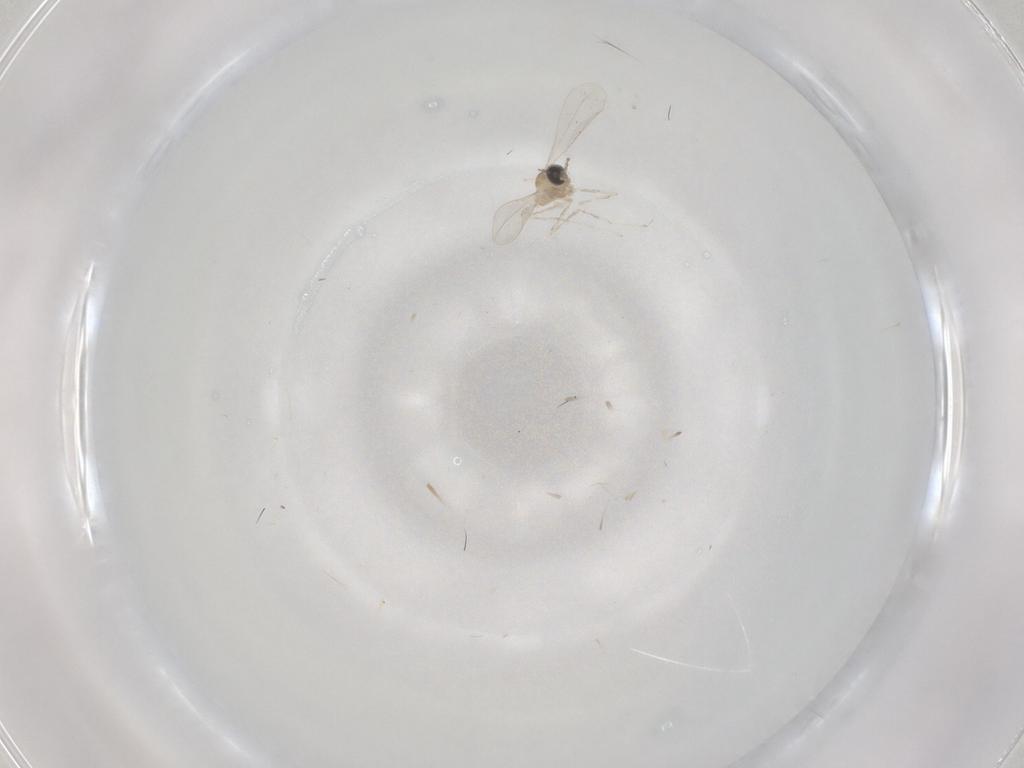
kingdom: Animalia
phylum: Arthropoda
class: Insecta
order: Diptera
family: Cecidomyiidae
